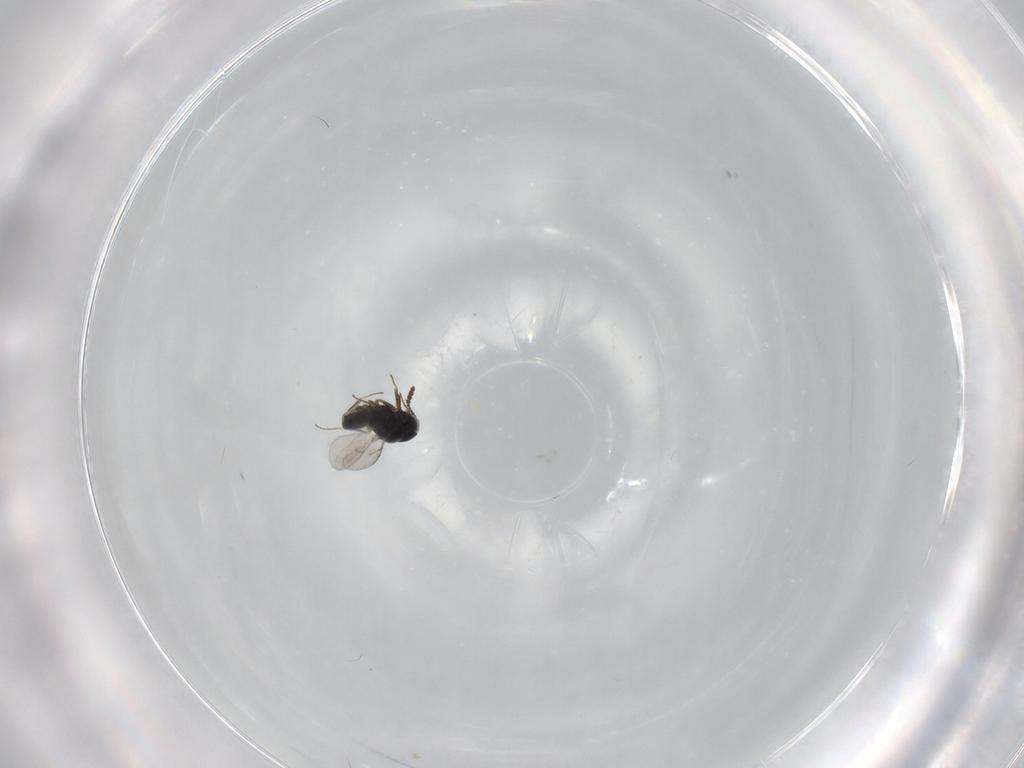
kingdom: Animalia
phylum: Arthropoda
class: Insecta
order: Hymenoptera
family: Scelionidae
